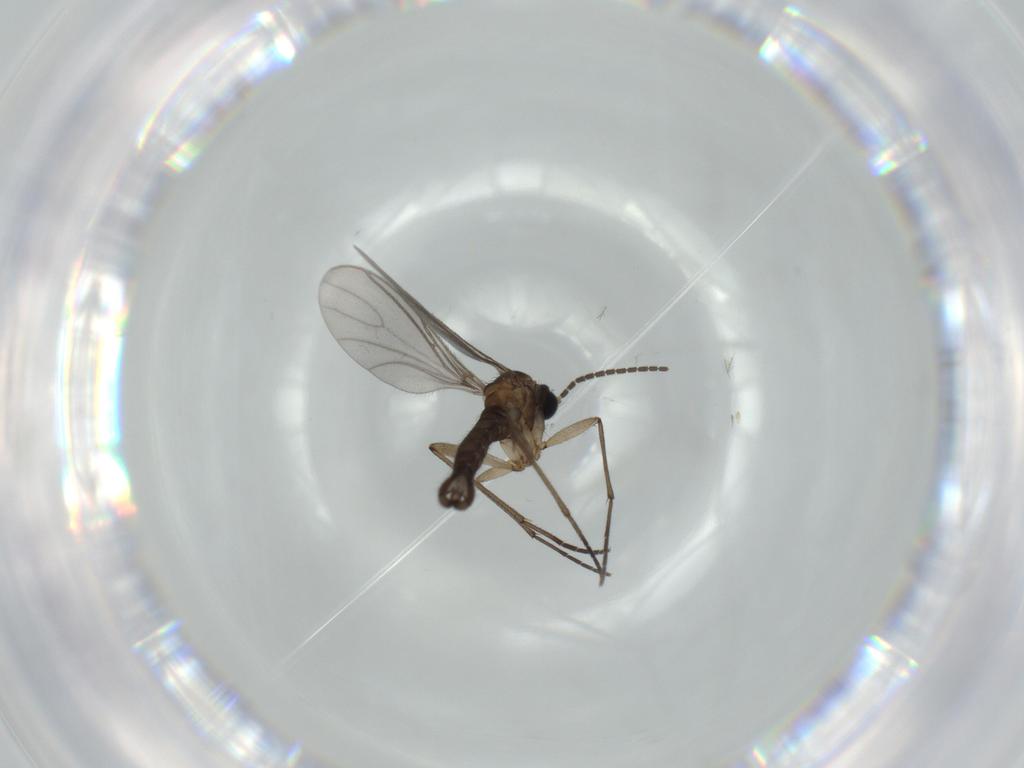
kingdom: Animalia
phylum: Arthropoda
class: Insecta
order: Diptera
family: Sciaridae
